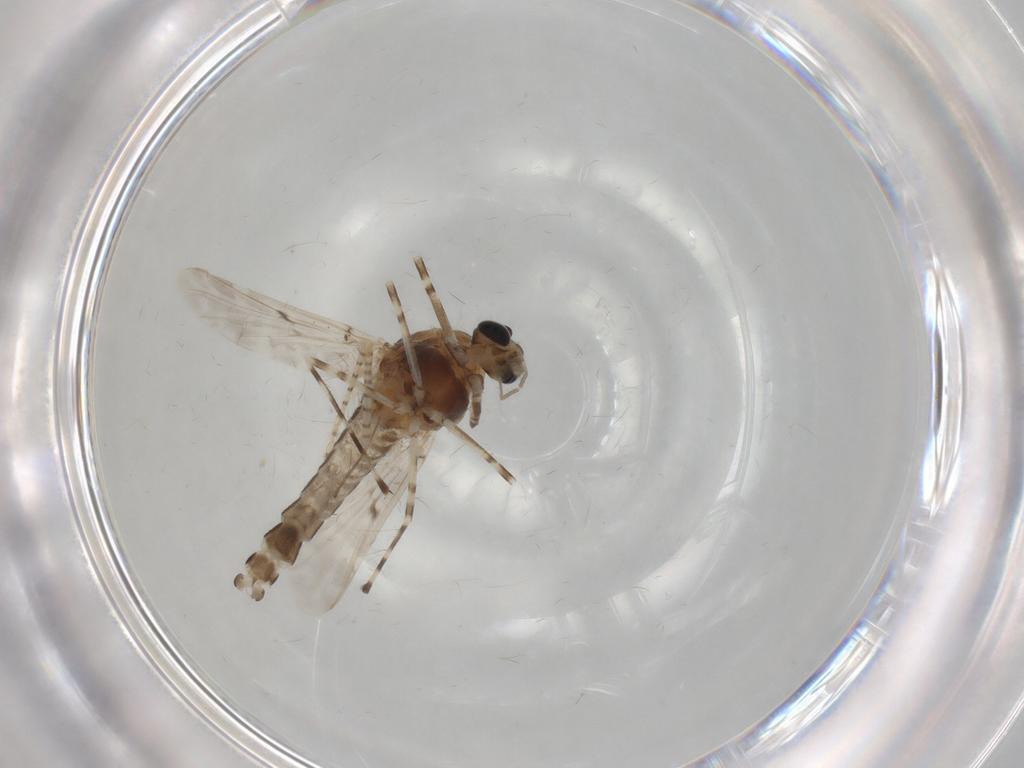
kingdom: Animalia
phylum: Arthropoda
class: Insecta
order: Diptera
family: Chironomidae
